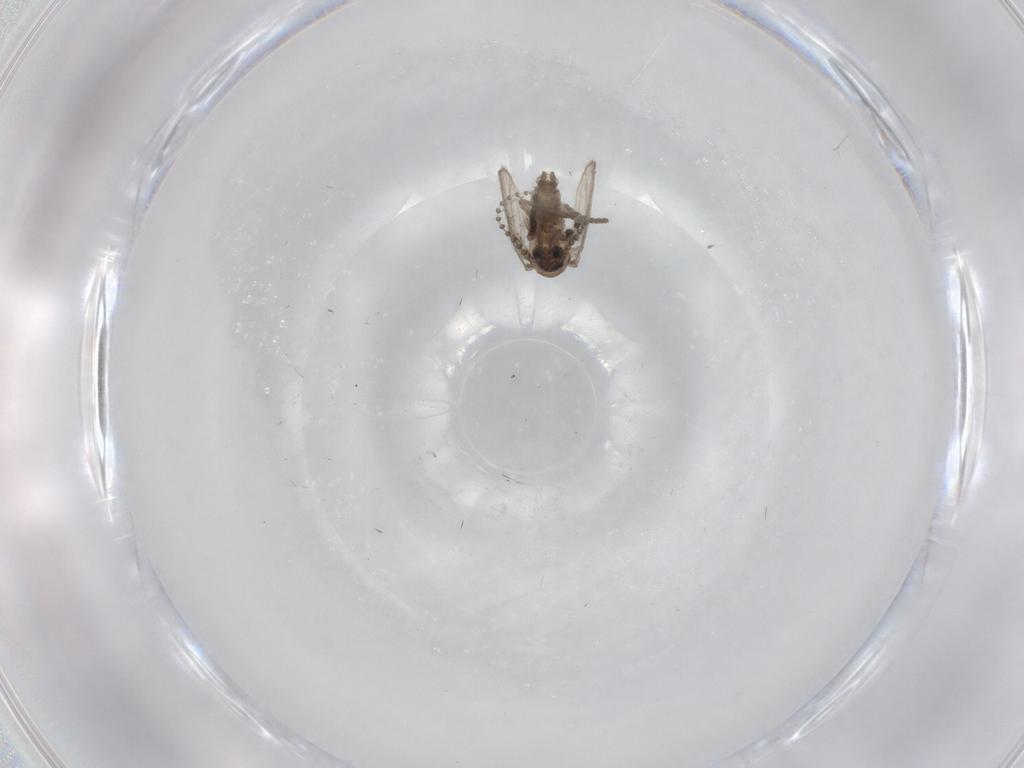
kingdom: Animalia
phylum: Arthropoda
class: Insecta
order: Diptera
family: Psychodidae
